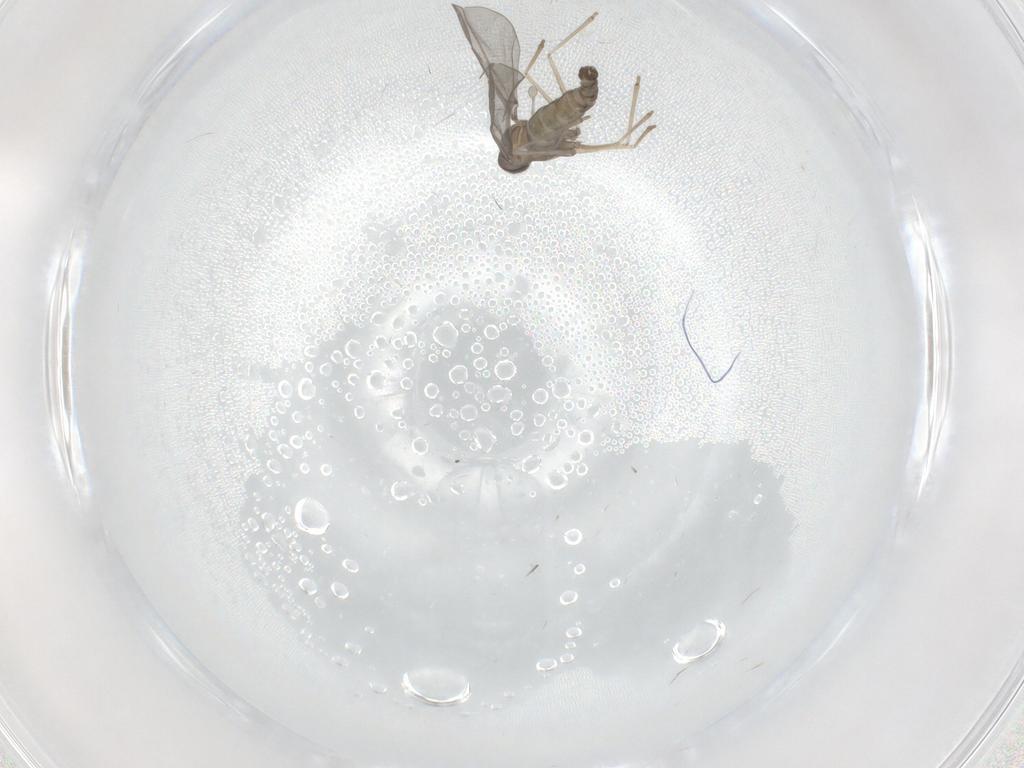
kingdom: Animalia
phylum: Arthropoda
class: Insecta
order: Diptera
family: Cecidomyiidae
